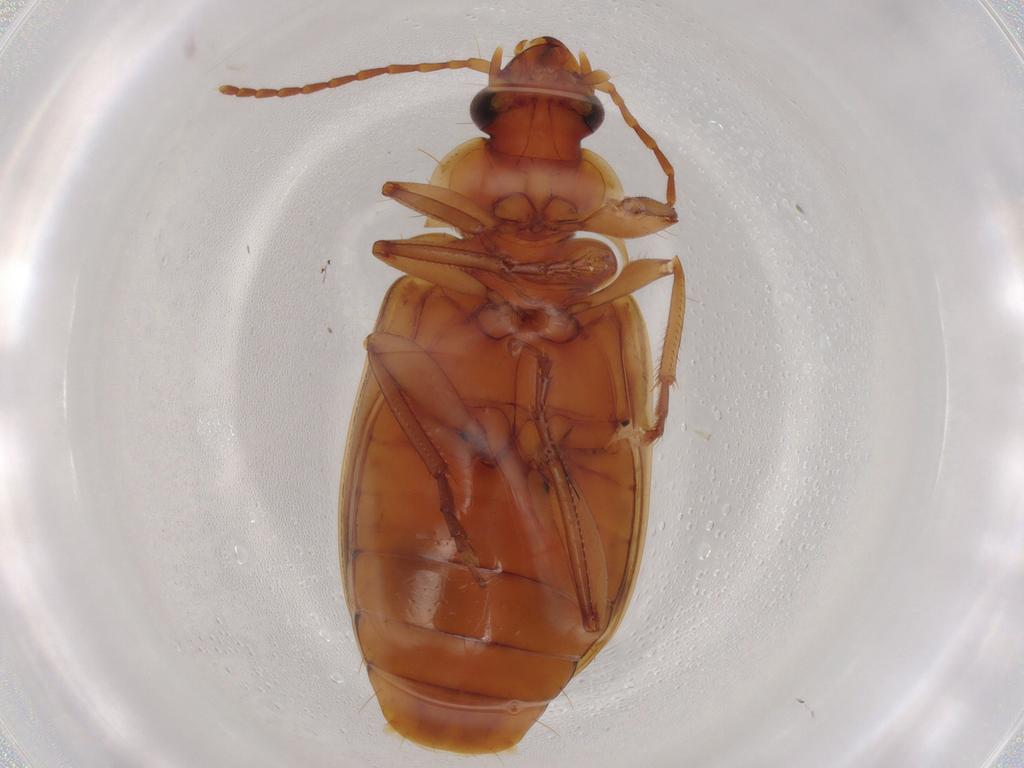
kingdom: Animalia
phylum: Arthropoda
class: Insecta
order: Coleoptera
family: Carabidae
